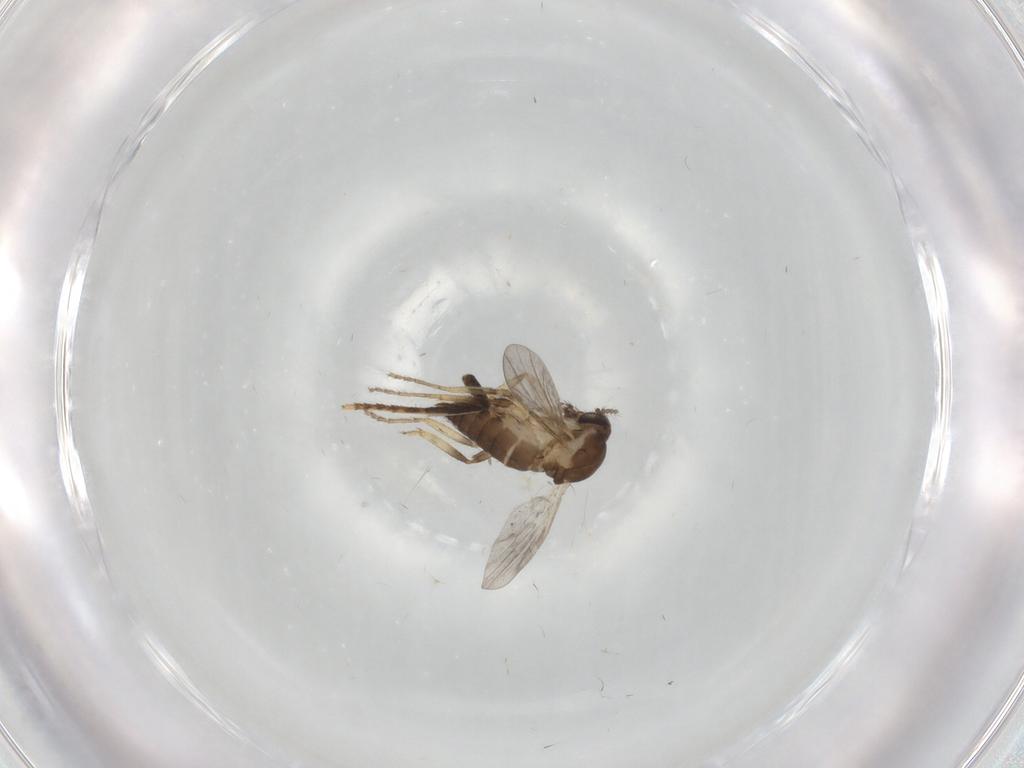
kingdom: Animalia
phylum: Arthropoda
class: Insecta
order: Diptera
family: Ceratopogonidae
